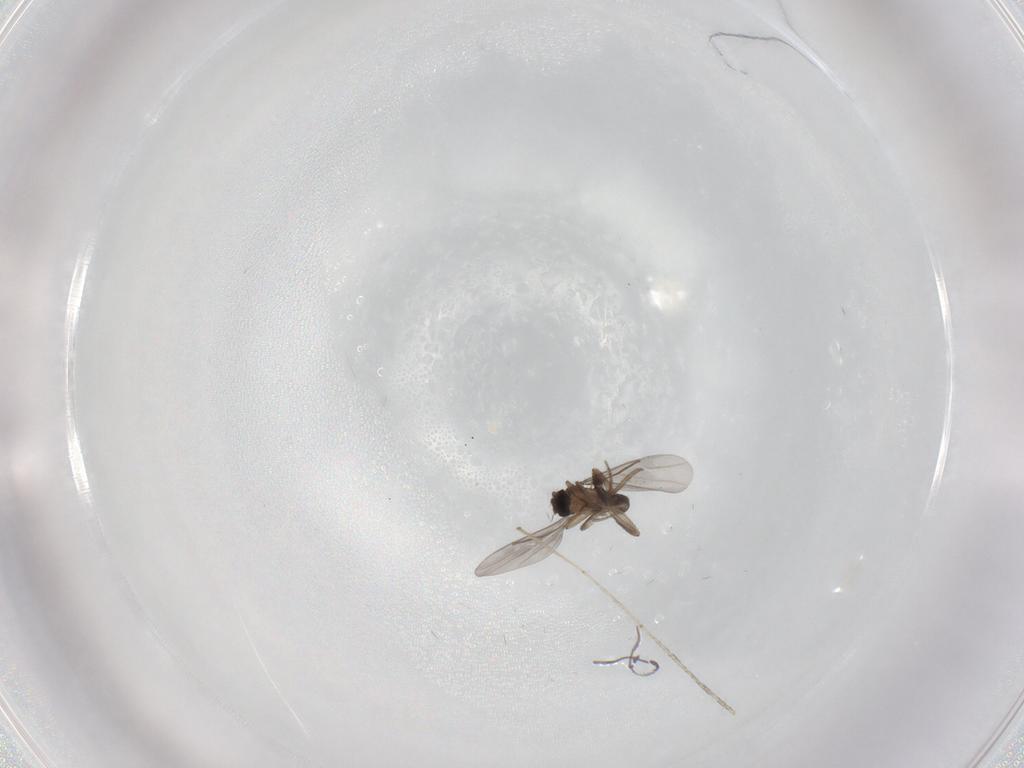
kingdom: Animalia
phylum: Arthropoda
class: Insecta
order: Diptera
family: Cecidomyiidae
